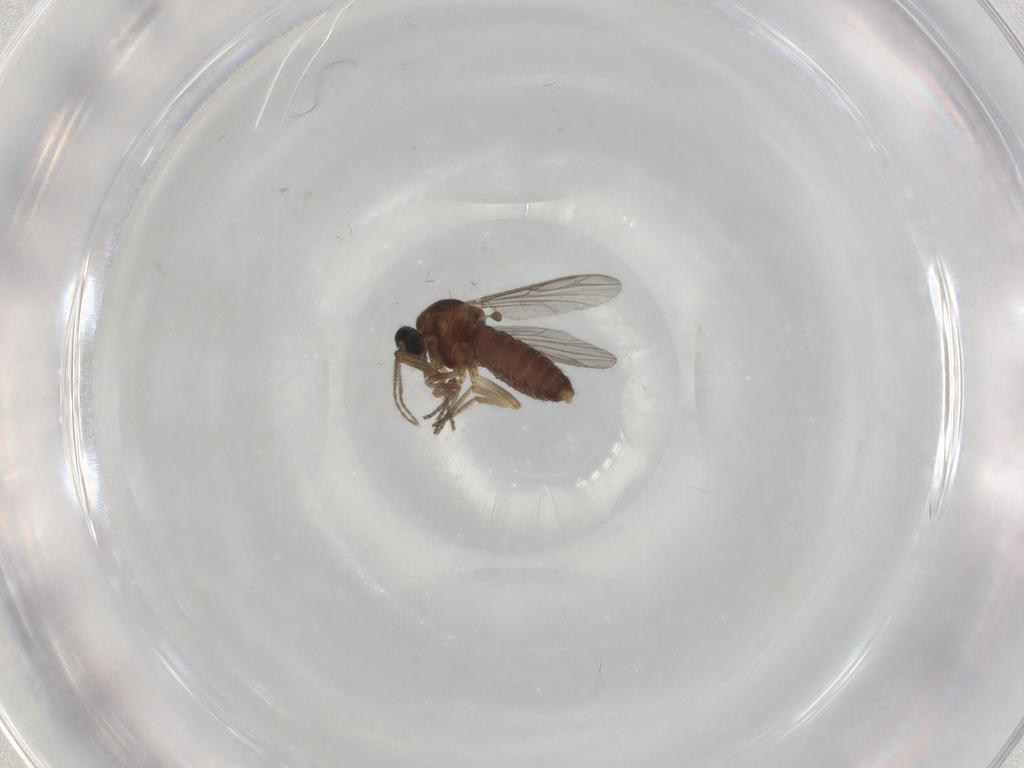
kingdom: Animalia
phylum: Arthropoda
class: Insecta
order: Diptera
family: Ceratopogonidae
